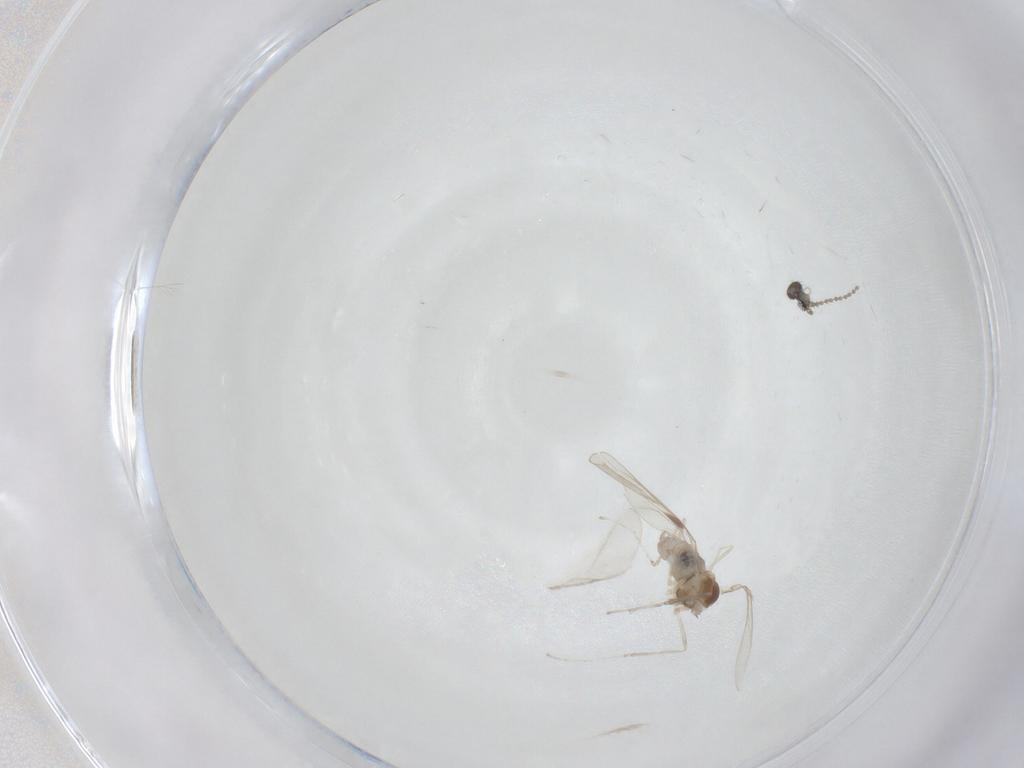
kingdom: Animalia
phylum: Arthropoda
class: Insecta
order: Diptera
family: Cecidomyiidae
